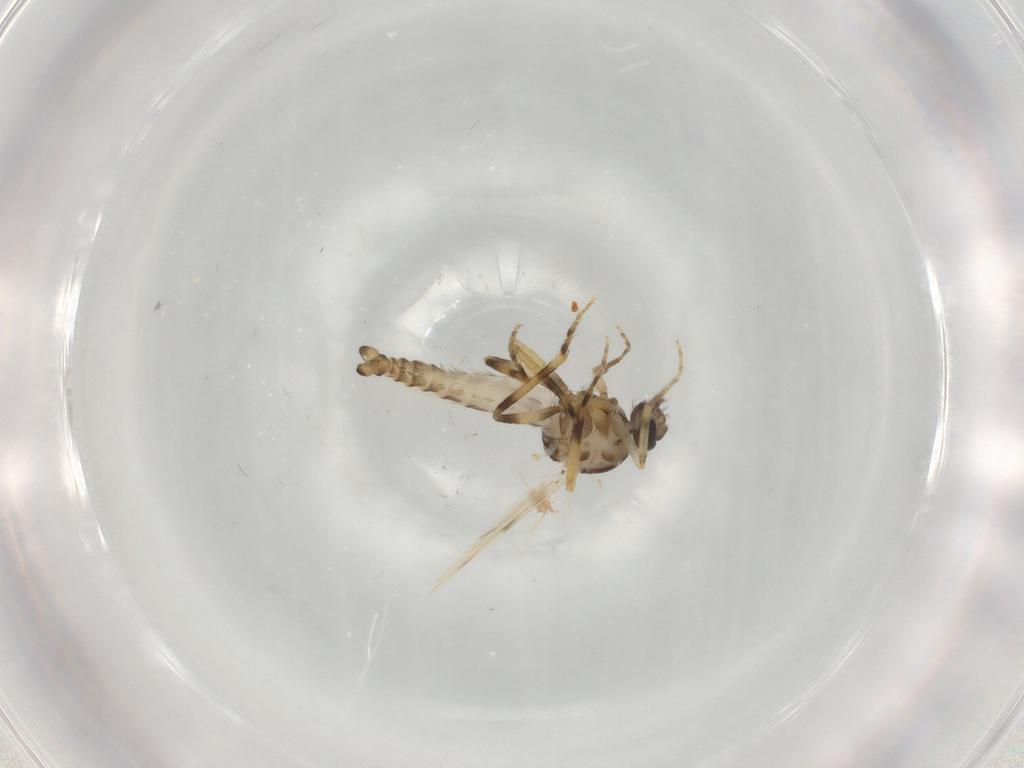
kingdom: Animalia
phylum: Arthropoda
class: Insecta
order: Diptera
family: Ceratopogonidae
